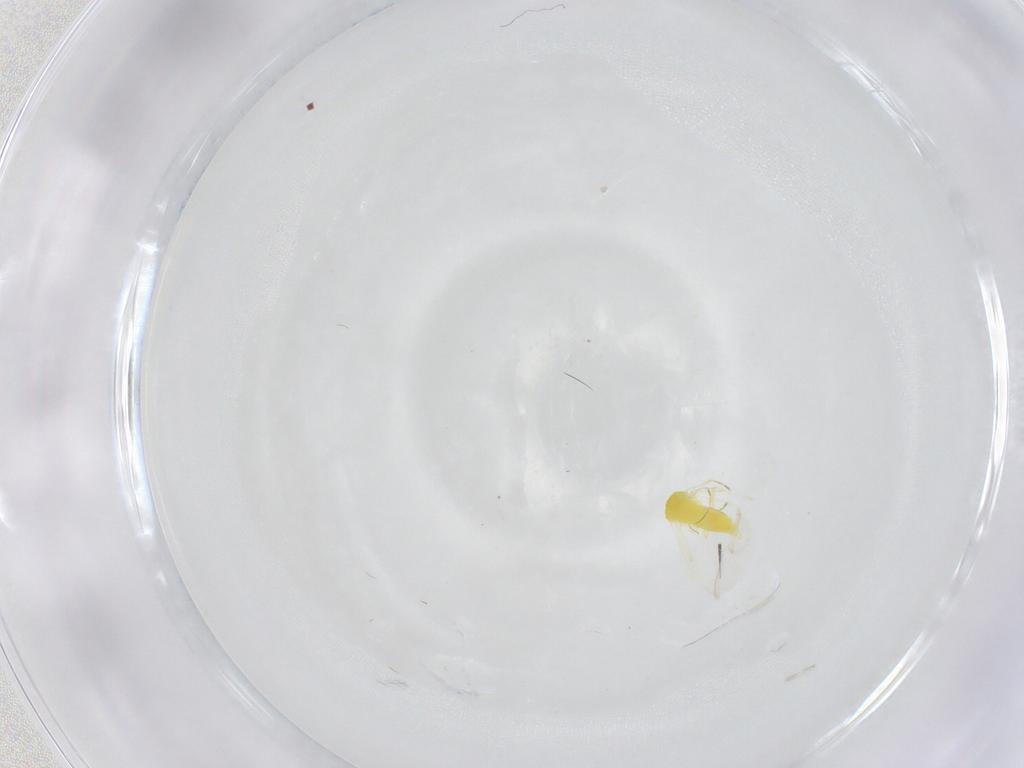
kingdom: Animalia
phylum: Arthropoda
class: Insecta
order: Hemiptera
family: Aleyrodidae
